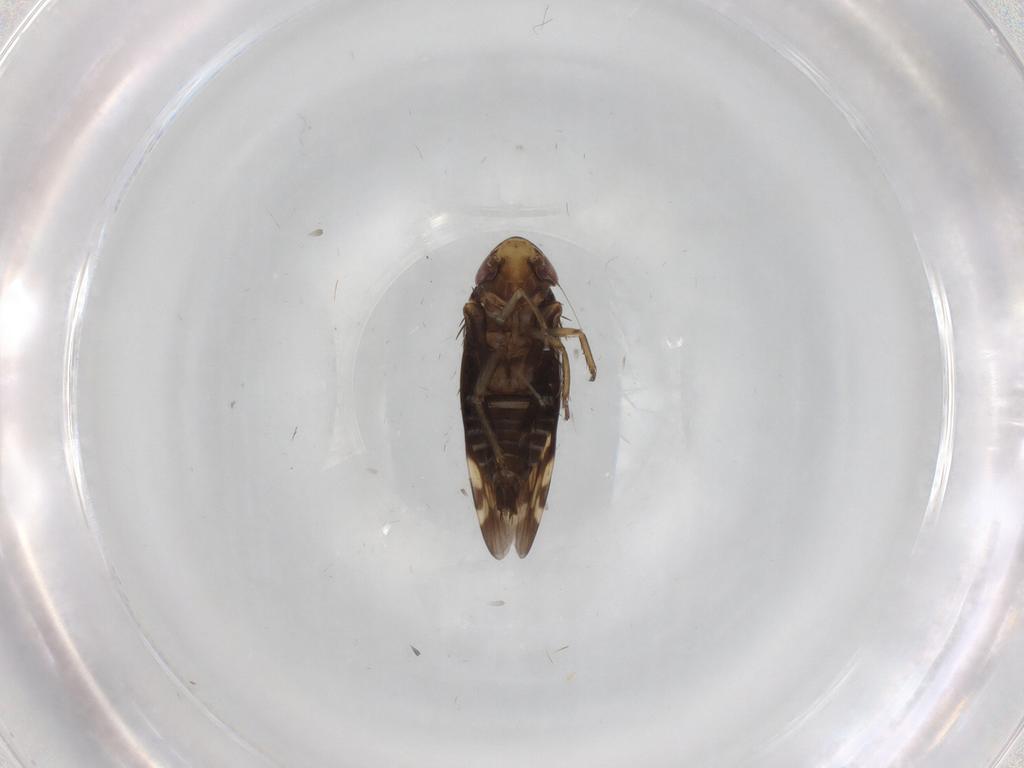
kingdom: Animalia
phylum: Arthropoda
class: Insecta
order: Hemiptera
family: Cicadellidae
